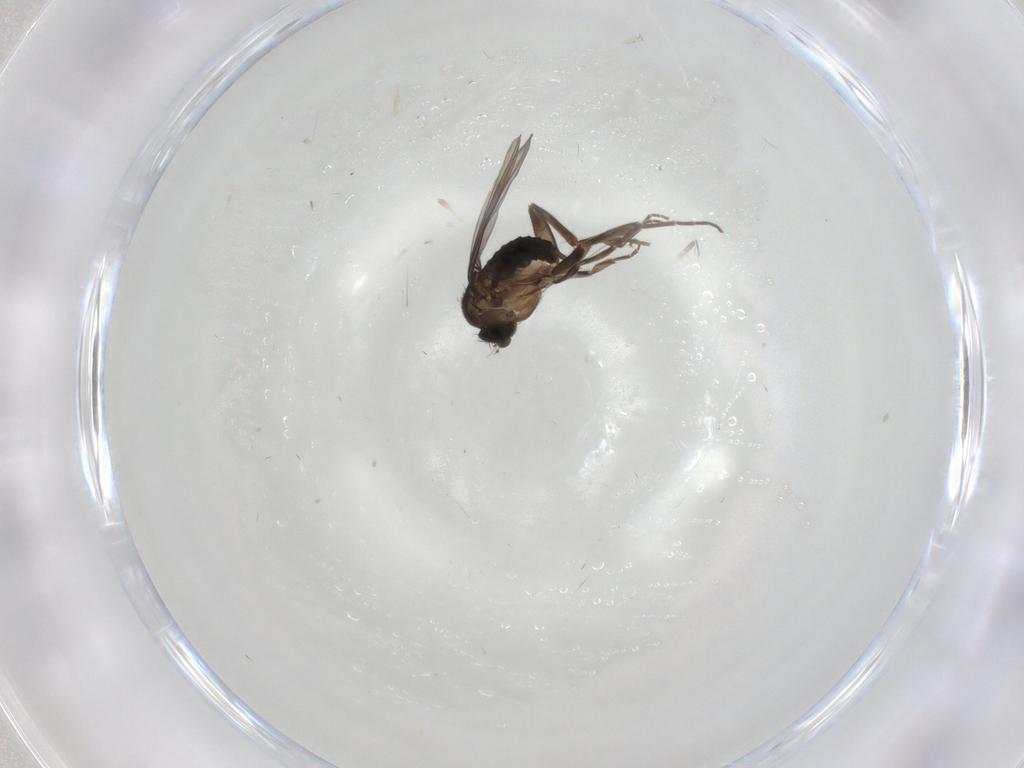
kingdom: Animalia
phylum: Arthropoda
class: Insecta
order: Diptera
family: Phoridae
